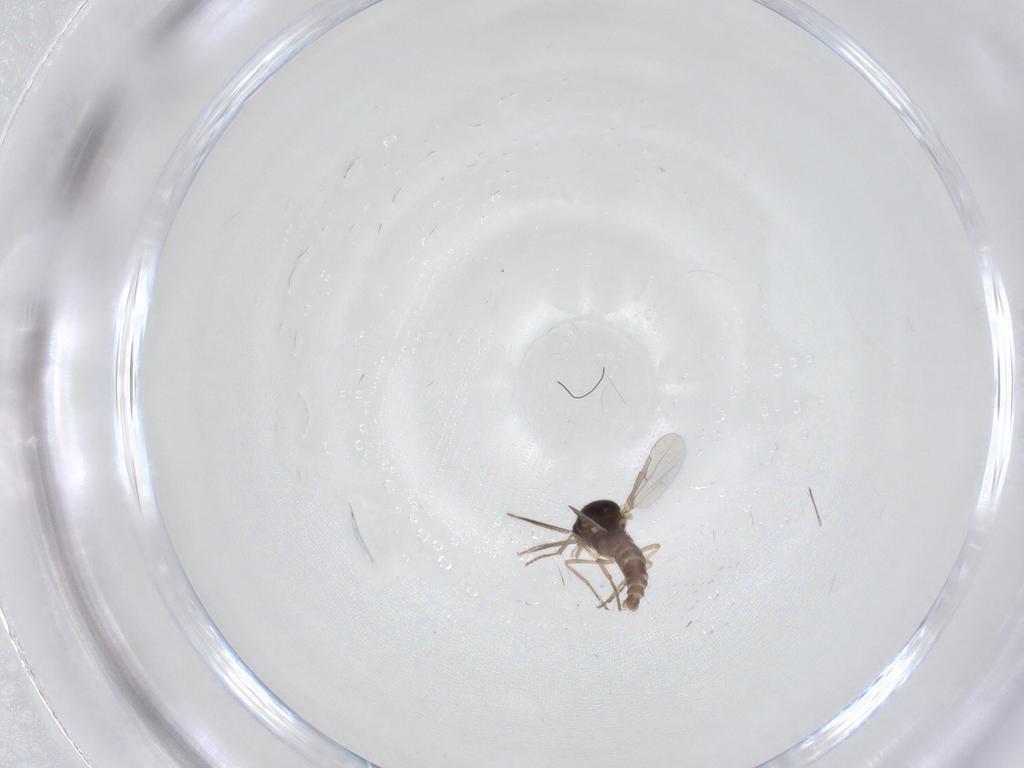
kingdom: Animalia
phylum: Arthropoda
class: Insecta
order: Diptera
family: Ceratopogonidae
